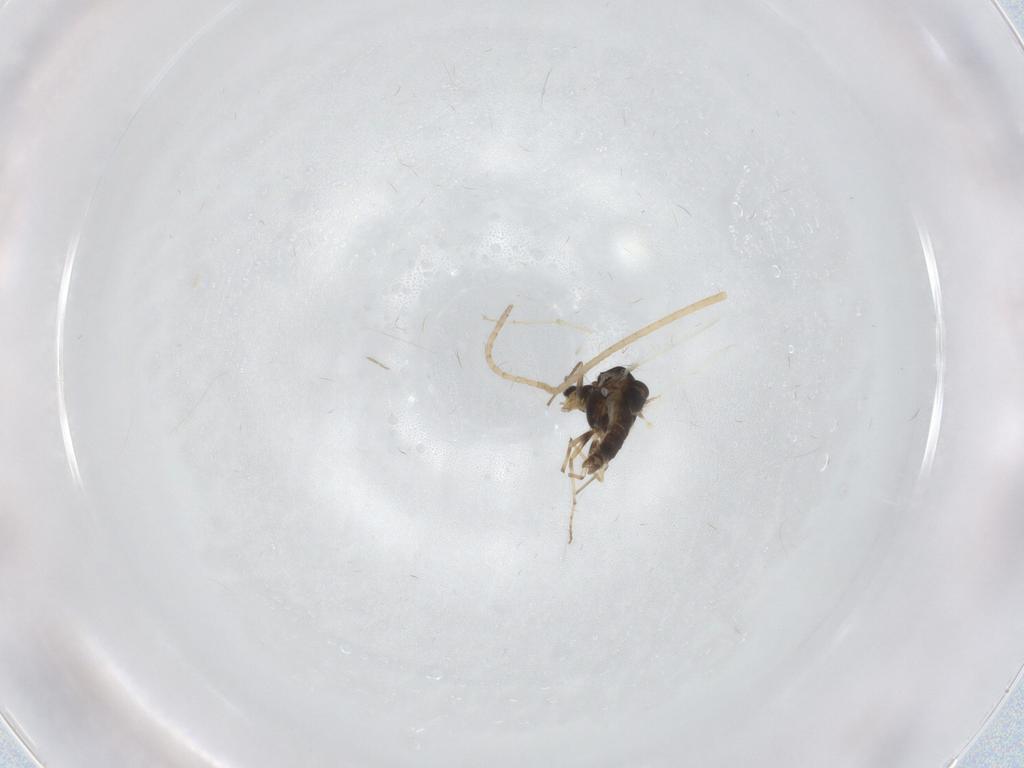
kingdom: Animalia
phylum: Arthropoda
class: Insecta
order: Diptera
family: Chironomidae
